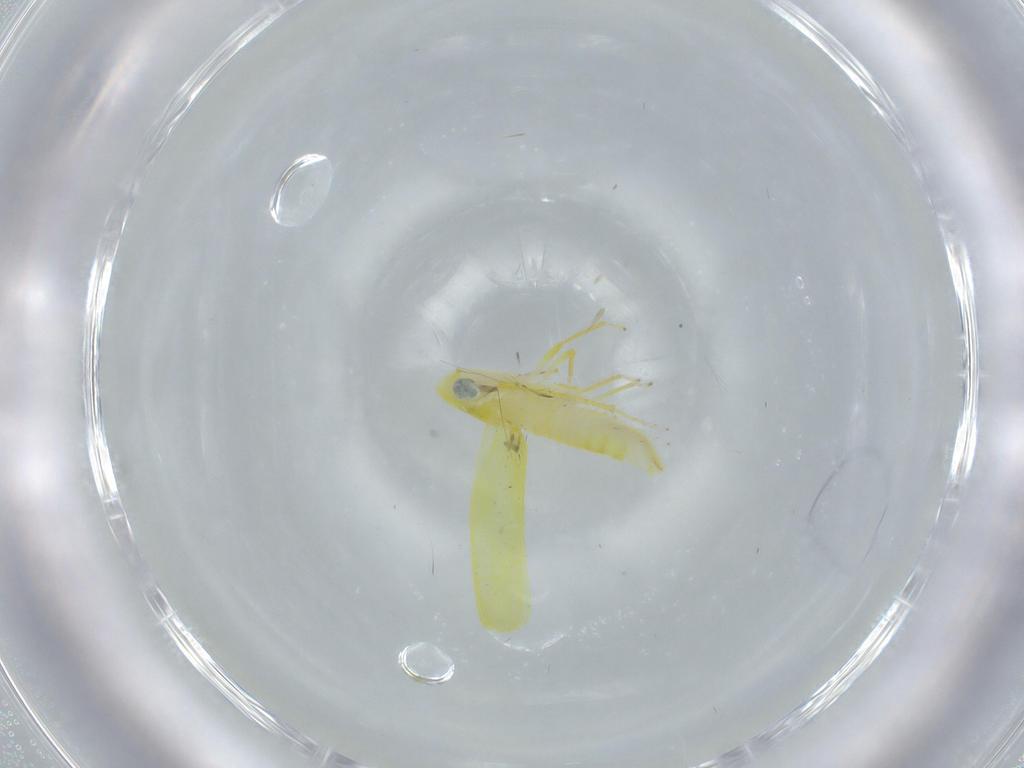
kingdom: Animalia
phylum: Arthropoda
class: Insecta
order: Hemiptera
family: Cicadellidae
